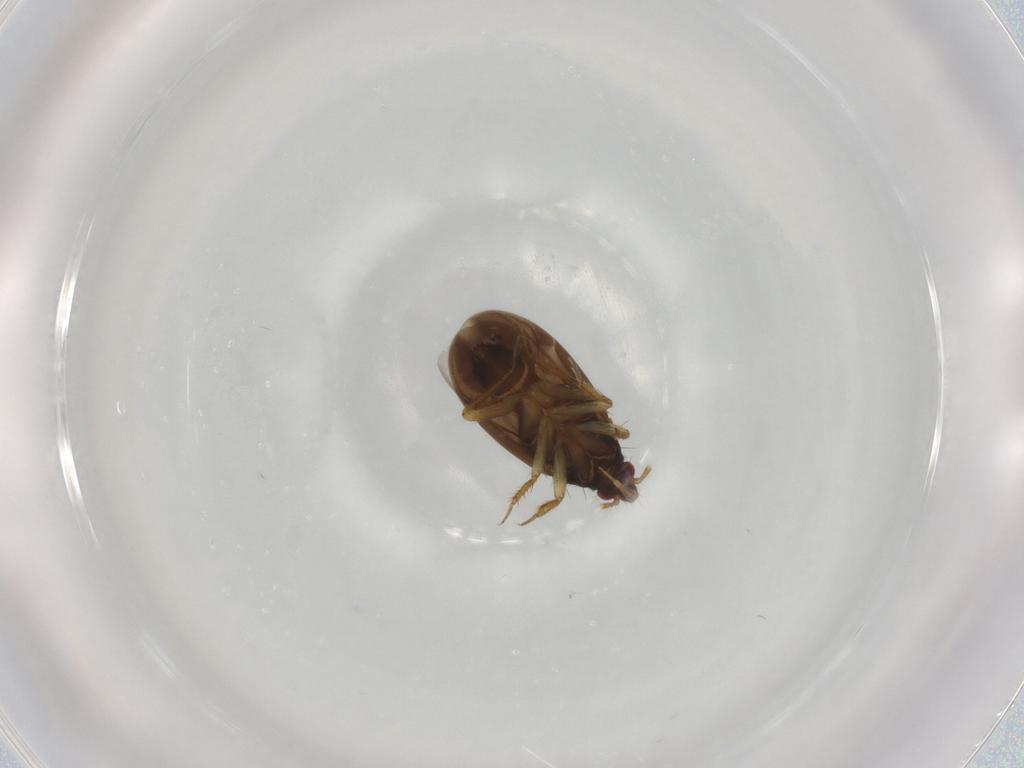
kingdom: Animalia
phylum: Arthropoda
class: Insecta
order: Hemiptera
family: Ceratocombidae
